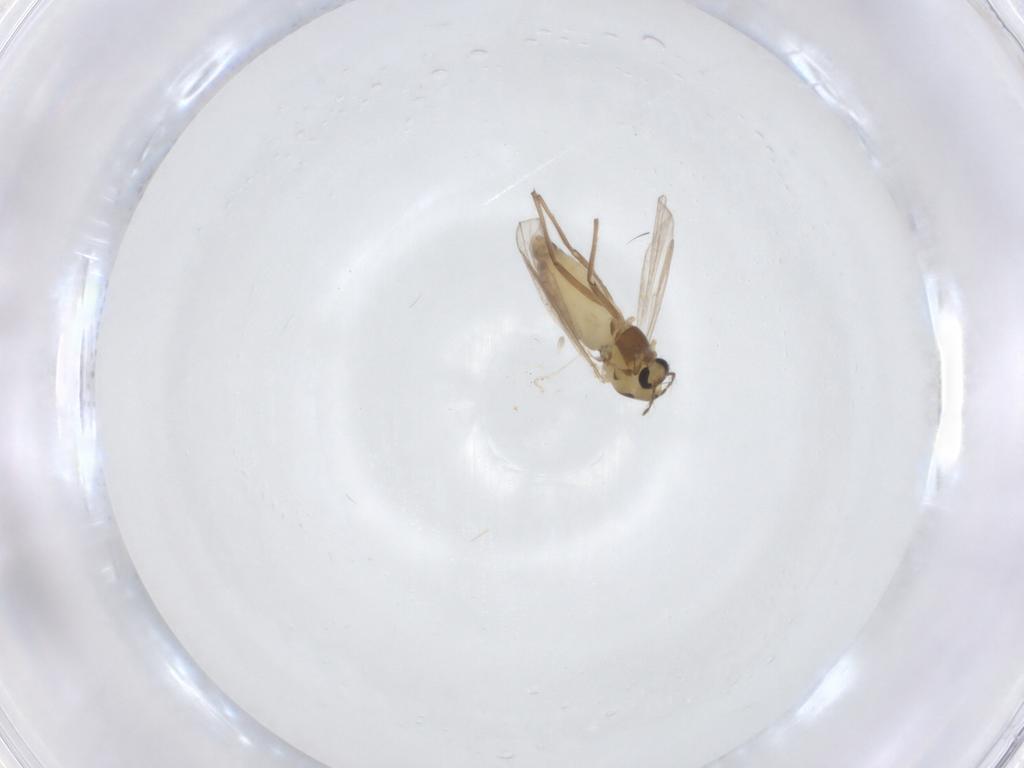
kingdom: Animalia
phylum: Arthropoda
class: Insecta
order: Diptera
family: Chironomidae
